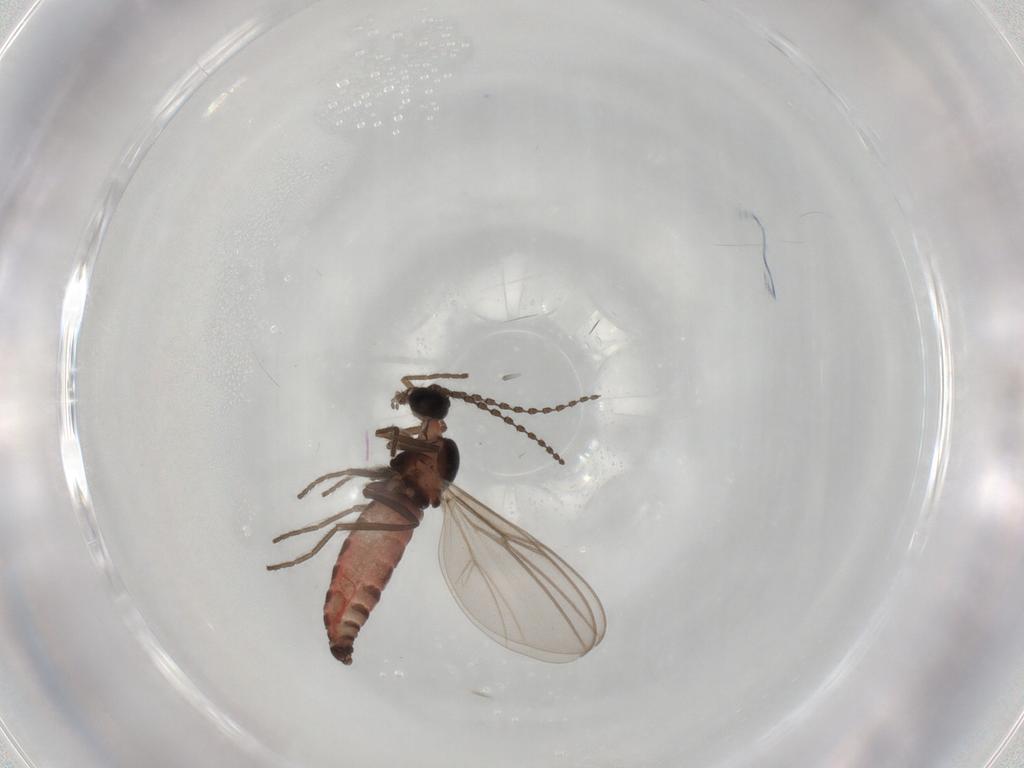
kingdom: Animalia
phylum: Arthropoda
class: Insecta
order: Diptera
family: Cecidomyiidae
